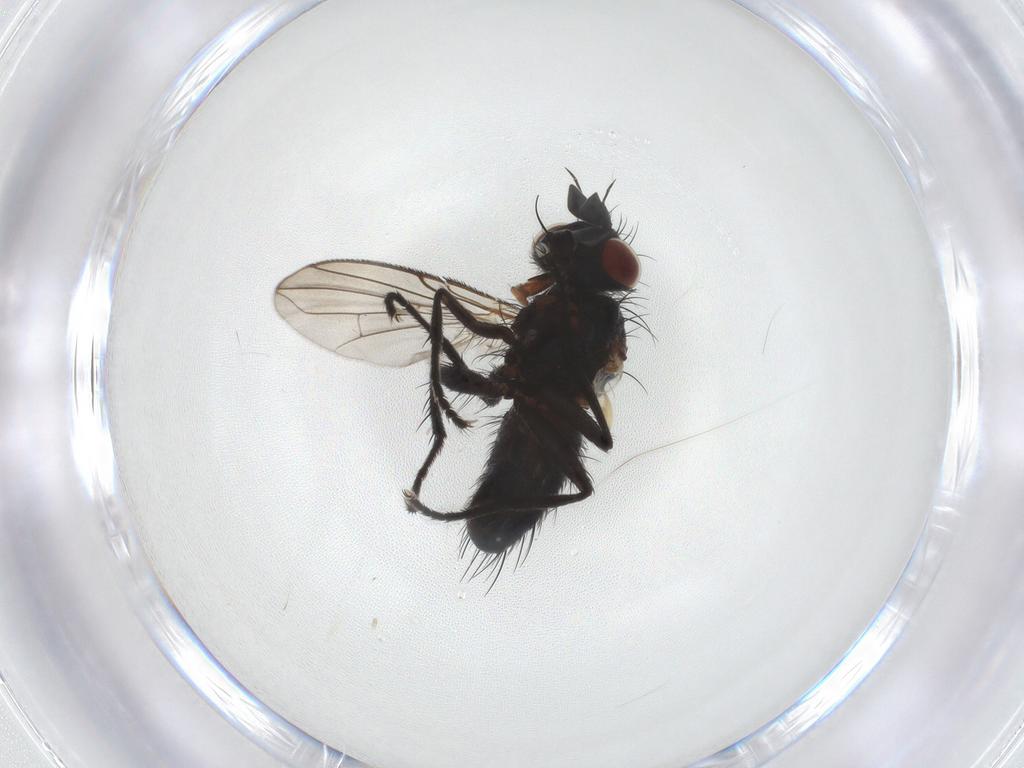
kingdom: Animalia
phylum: Arthropoda
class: Insecta
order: Diptera
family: Tachinidae
